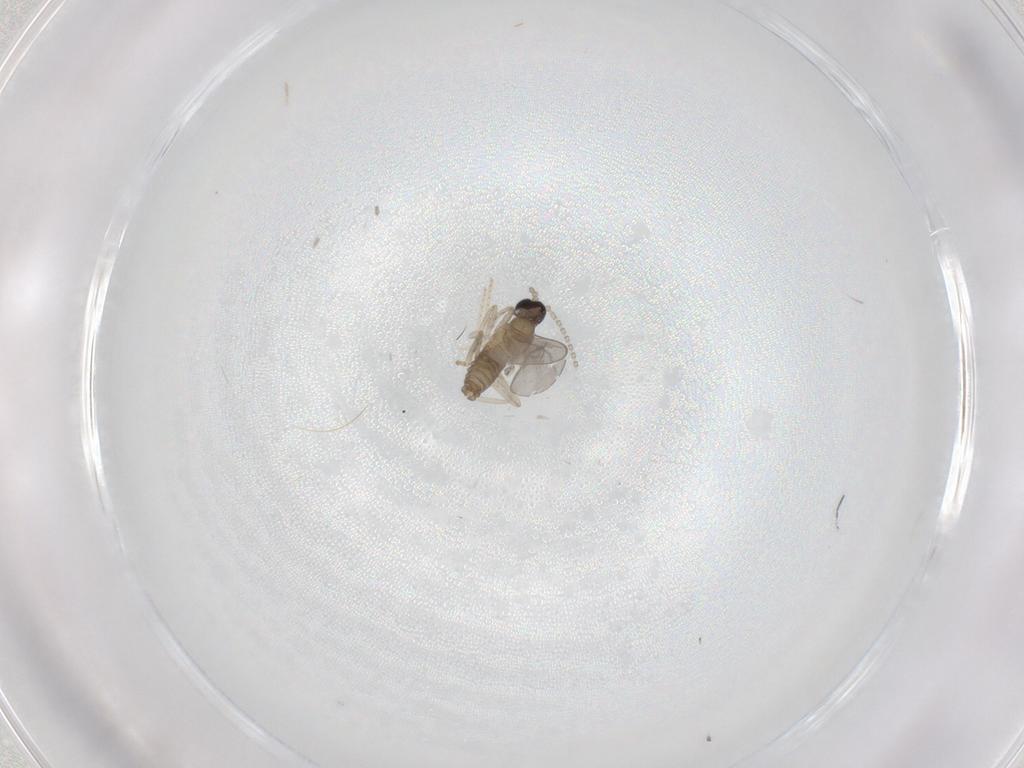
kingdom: Animalia
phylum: Arthropoda
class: Insecta
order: Diptera
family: Cecidomyiidae
